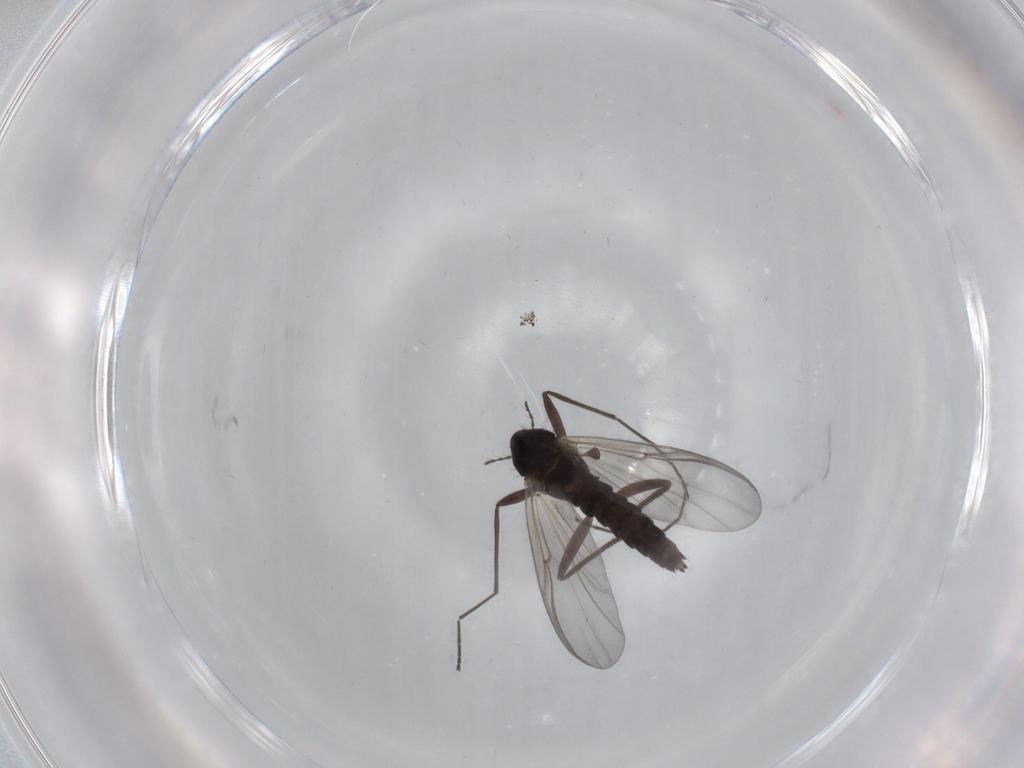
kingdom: Animalia
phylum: Arthropoda
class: Insecta
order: Diptera
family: Chironomidae
